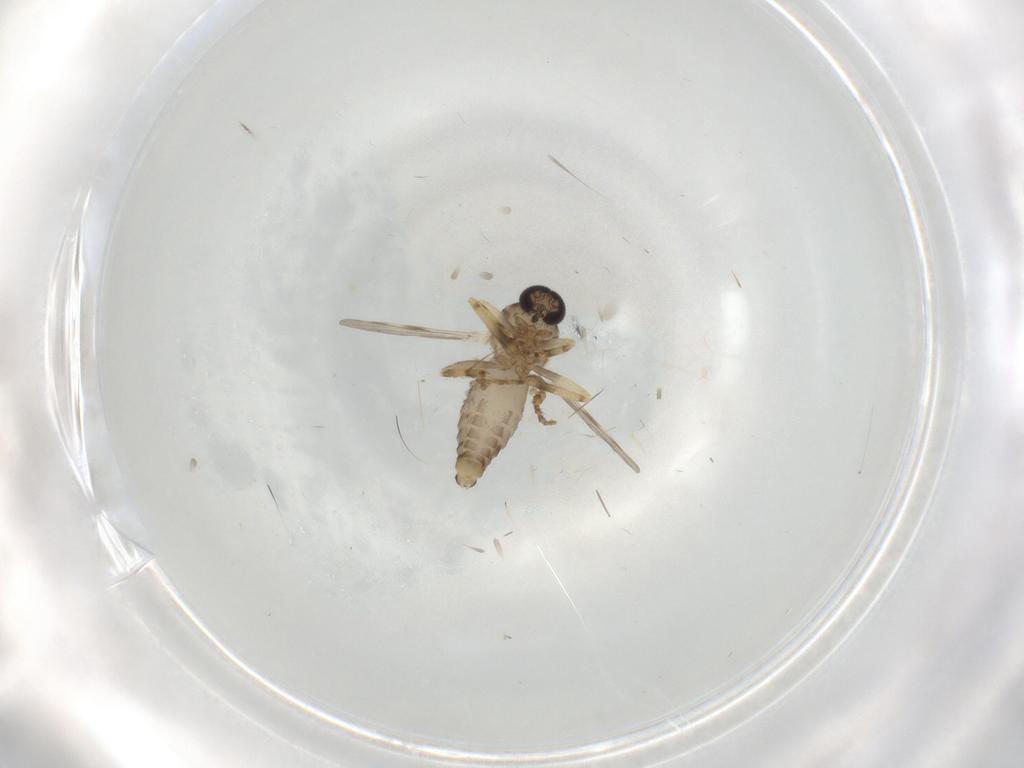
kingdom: Animalia
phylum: Arthropoda
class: Insecta
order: Diptera
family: Ceratopogonidae
